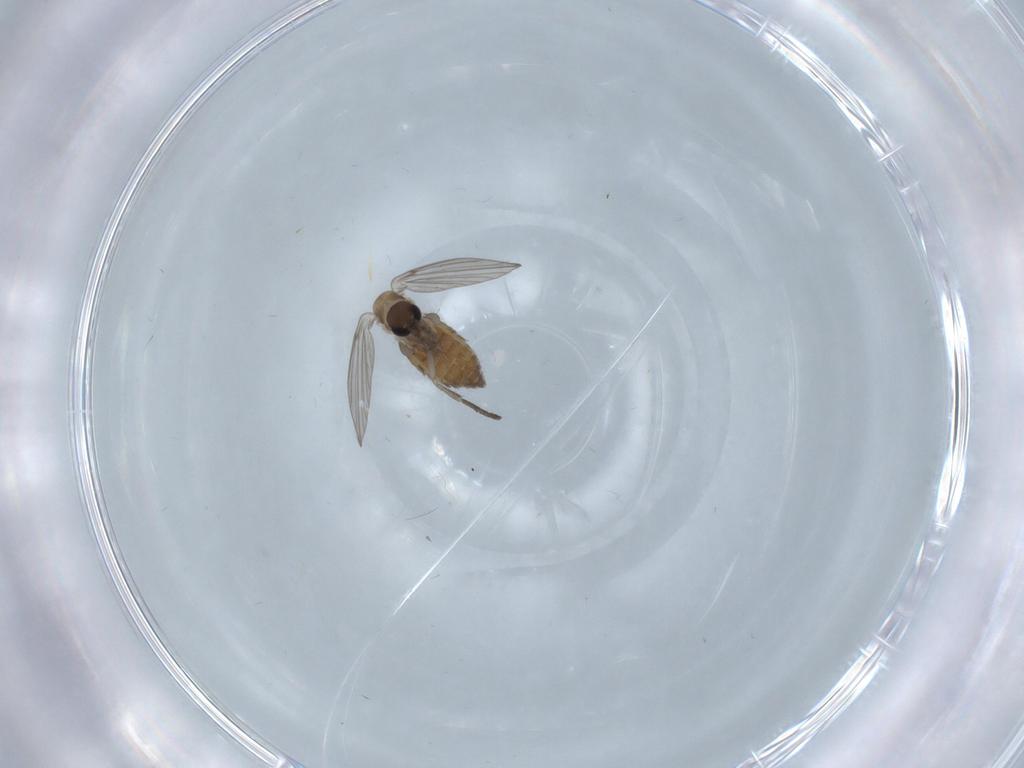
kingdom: Animalia
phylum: Arthropoda
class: Insecta
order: Diptera
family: Psychodidae
